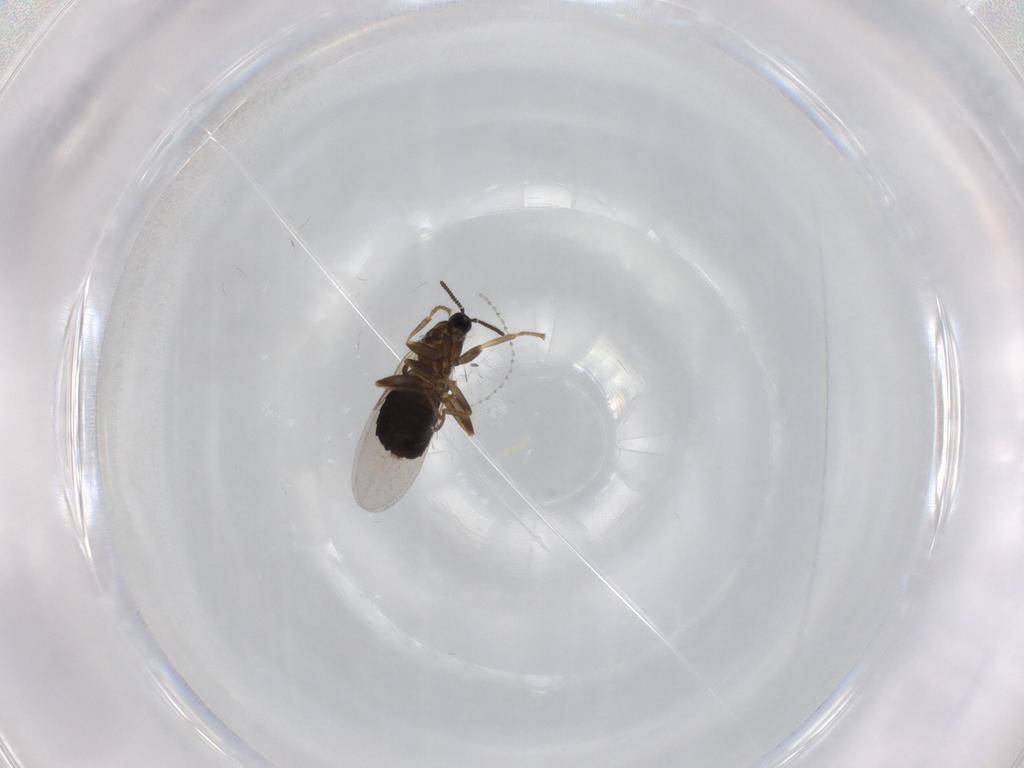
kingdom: Animalia
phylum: Arthropoda
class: Insecta
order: Diptera
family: Scatopsidae
